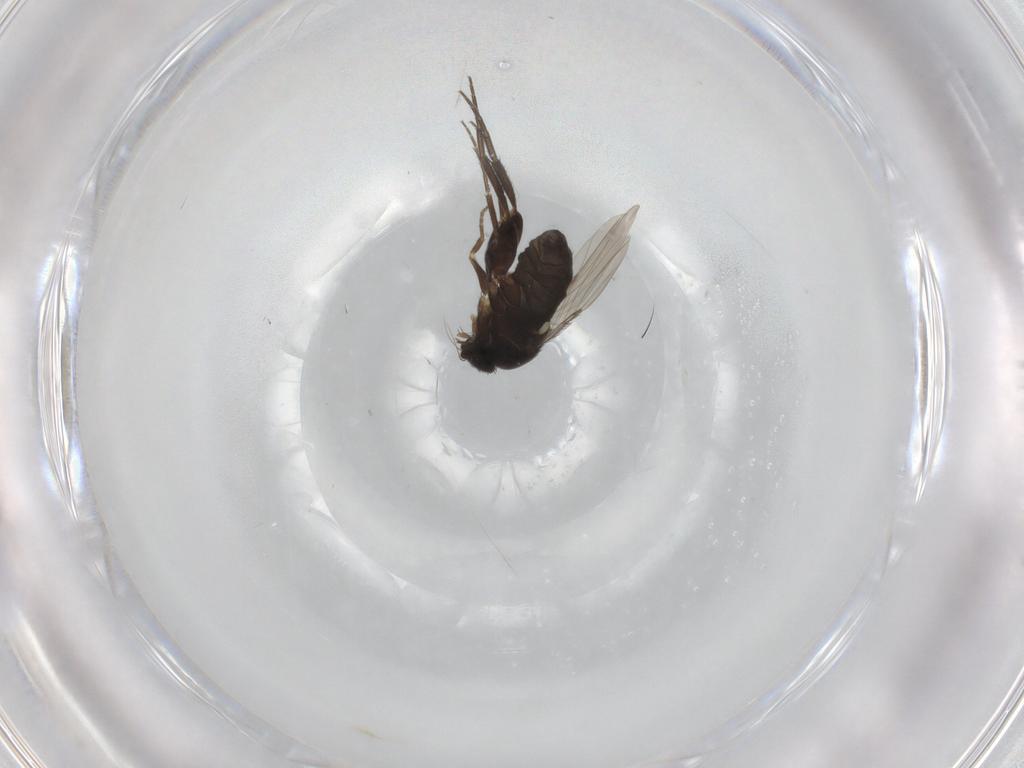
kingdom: Animalia
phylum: Arthropoda
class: Insecta
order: Diptera
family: Phoridae
